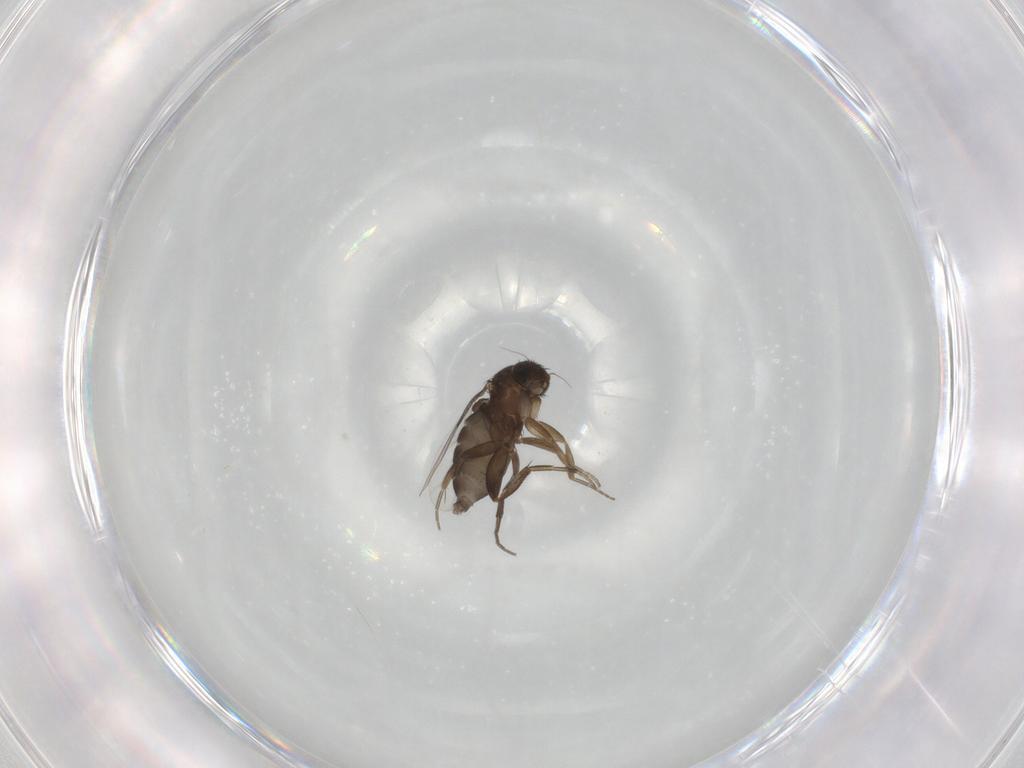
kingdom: Animalia
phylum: Arthropoda
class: Insecta
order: Diptera
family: Phoridae
